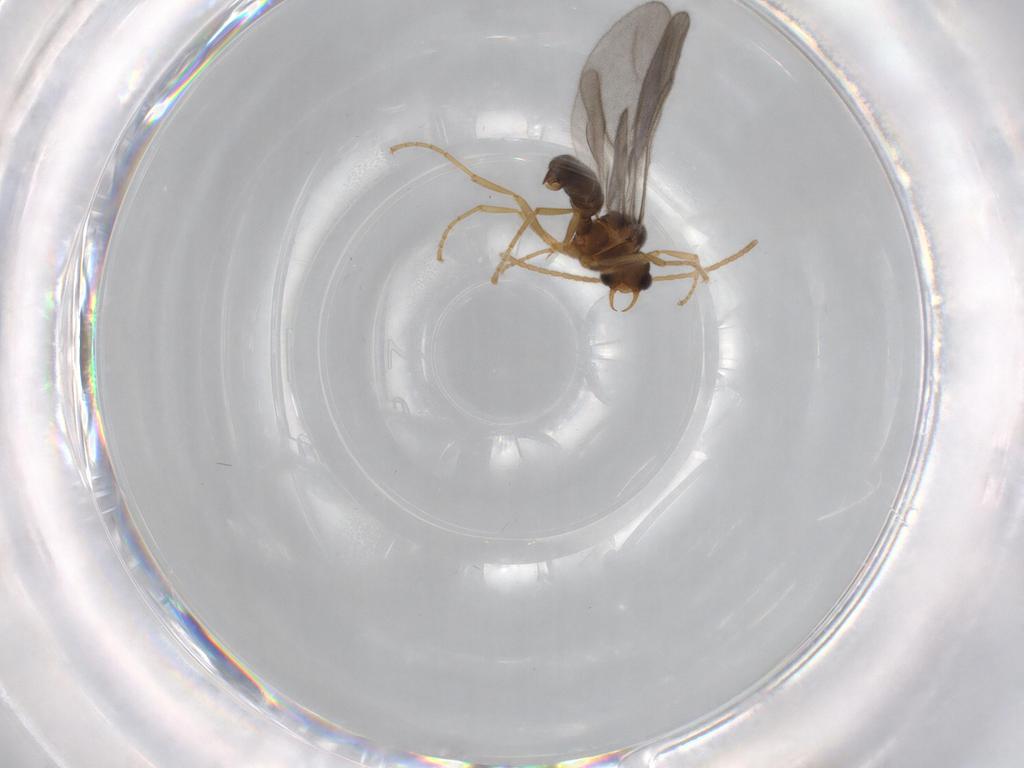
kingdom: Animalia
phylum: Arthropoda
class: Insecta
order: Hymenoptera
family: Formicidae
